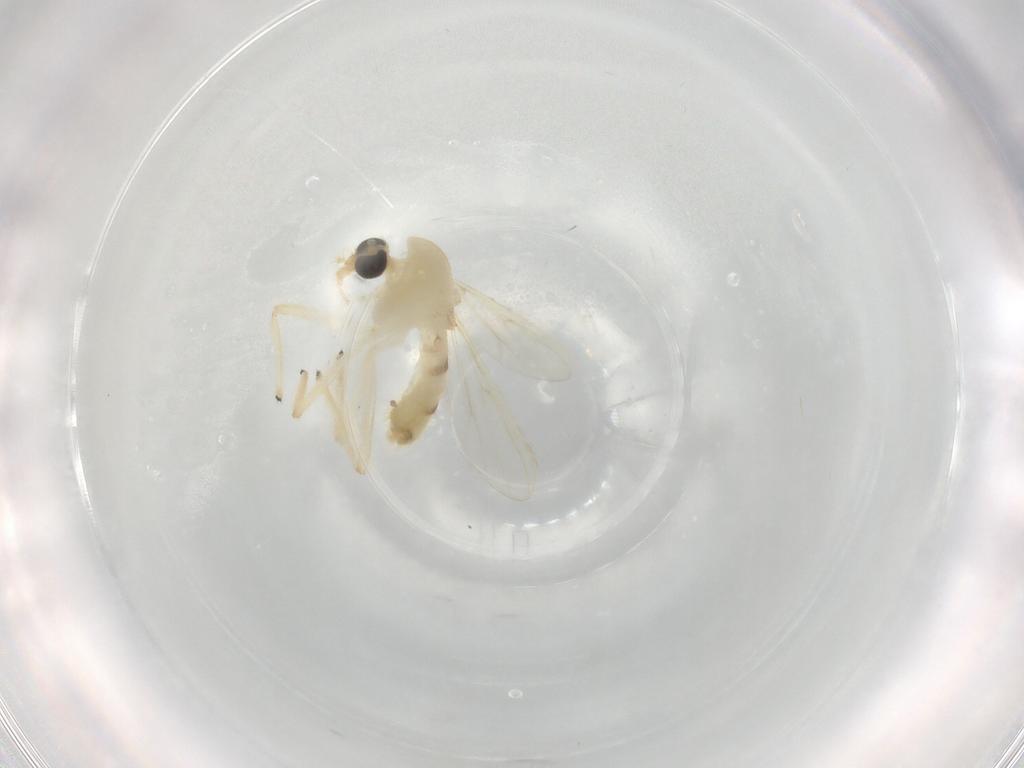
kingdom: Animalia
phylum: Arthropoda
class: Insecta
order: Diptera
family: Chironomidae
